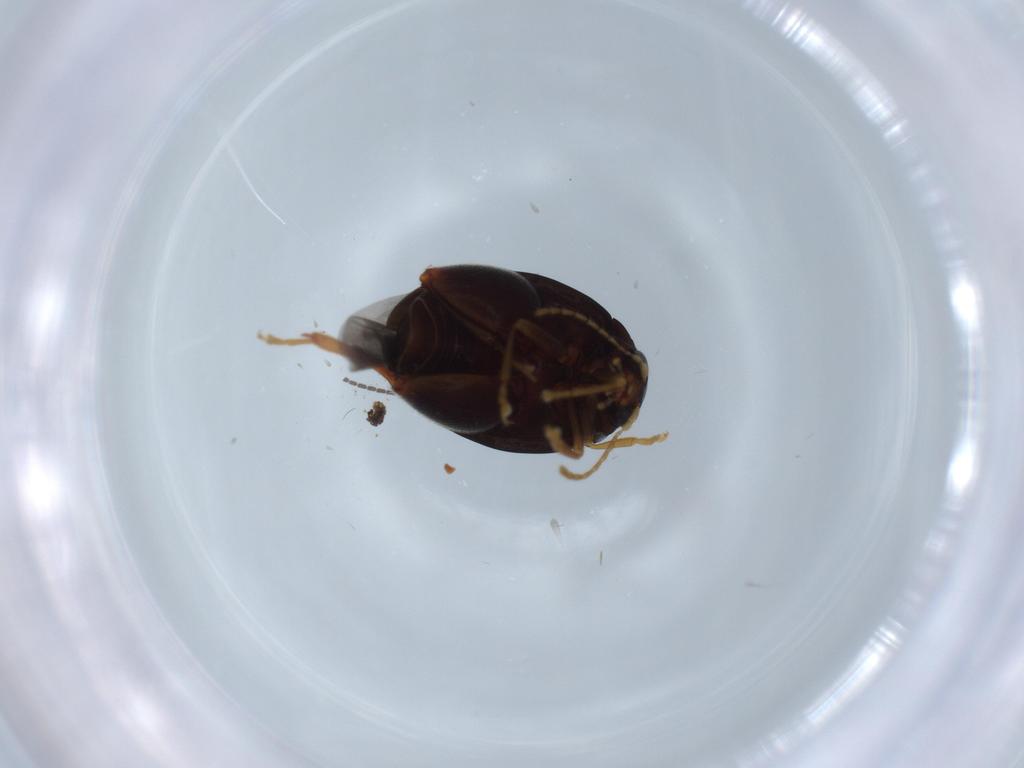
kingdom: Animalia
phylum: Arthropoda
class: Insecta
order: Coleoptera
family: Chrysomelidae
